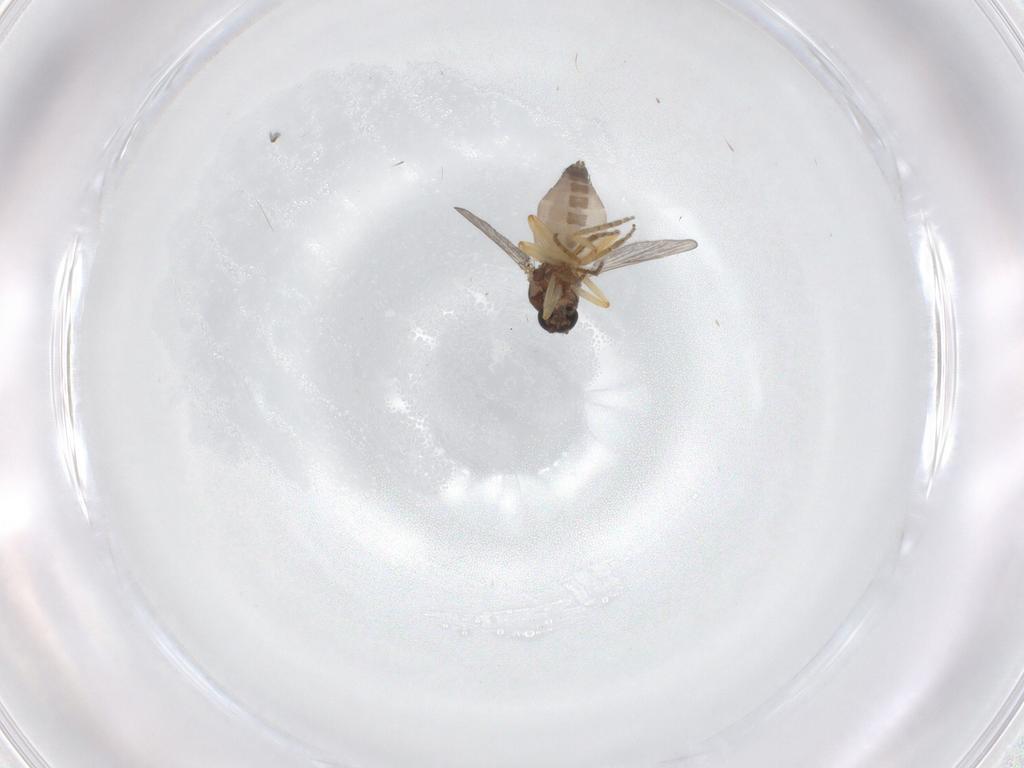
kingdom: Animalia
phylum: Arthropoda
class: Insecta
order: Diptera
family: Ceratopogonidae
